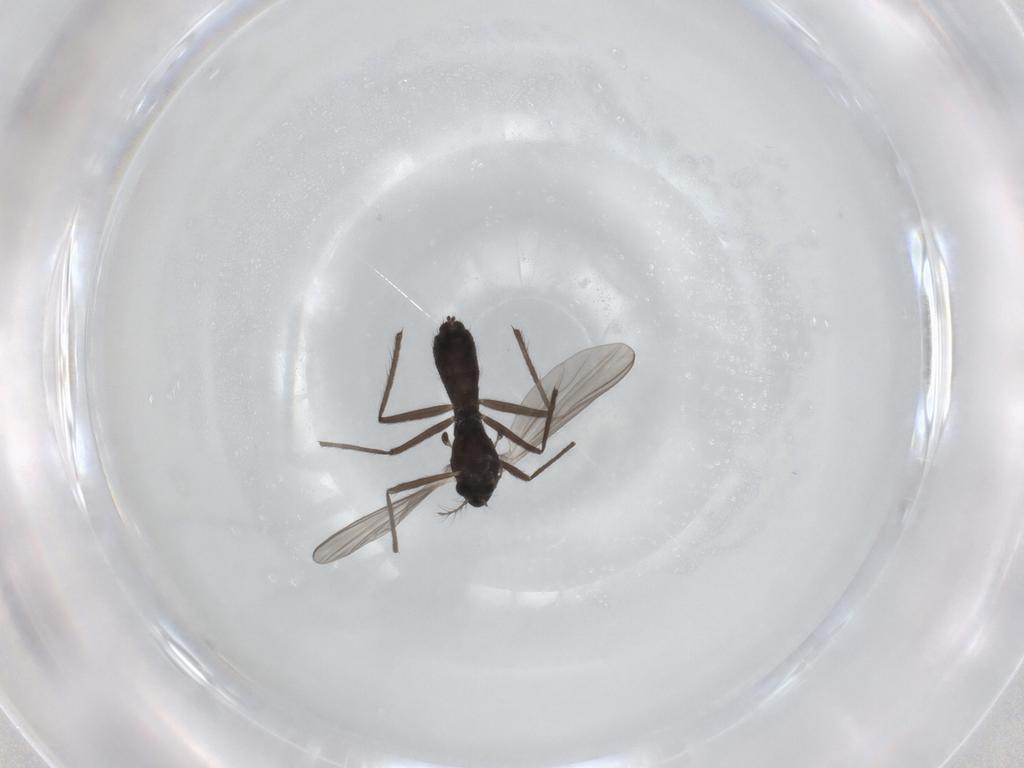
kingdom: Animalia
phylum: Arthropoda
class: Insecta
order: Diptera
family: Chironomidae
